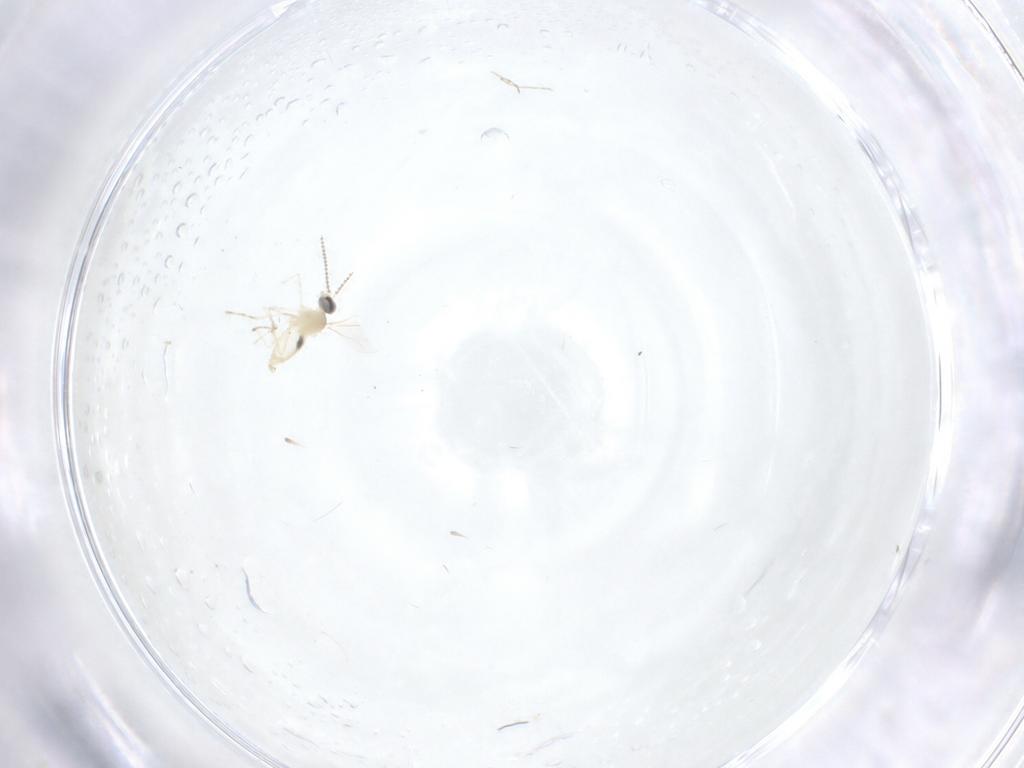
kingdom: Animalia
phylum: Arthropoda
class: Insecta
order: Diptera
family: Cecidomyiidae
